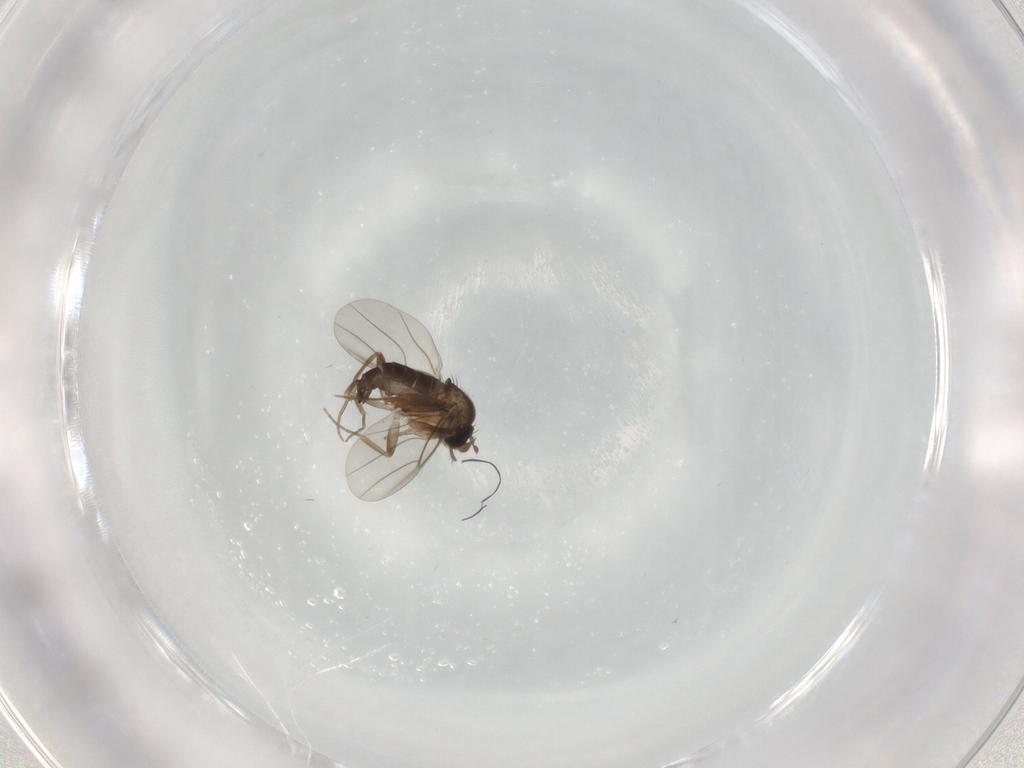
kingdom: Animalia
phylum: Arthropoda
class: Insecta
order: Diptera
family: Phoridae
